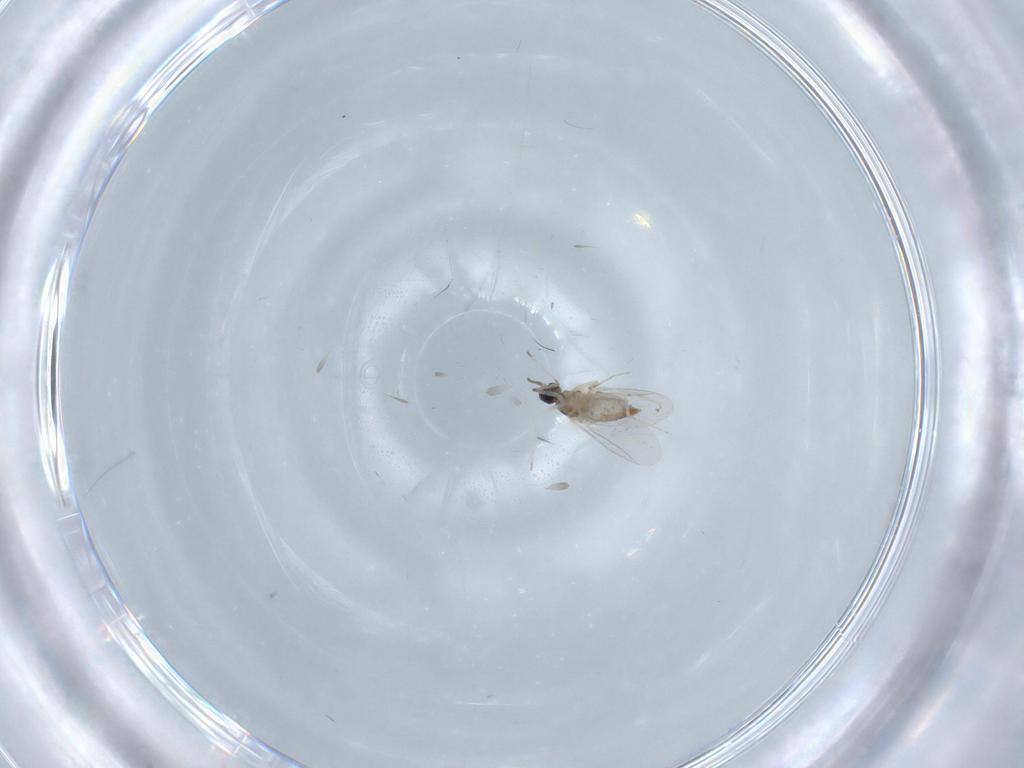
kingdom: Animalia
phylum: Arthropoda
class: Insecta
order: Diptera
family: Cecidomyiidae
